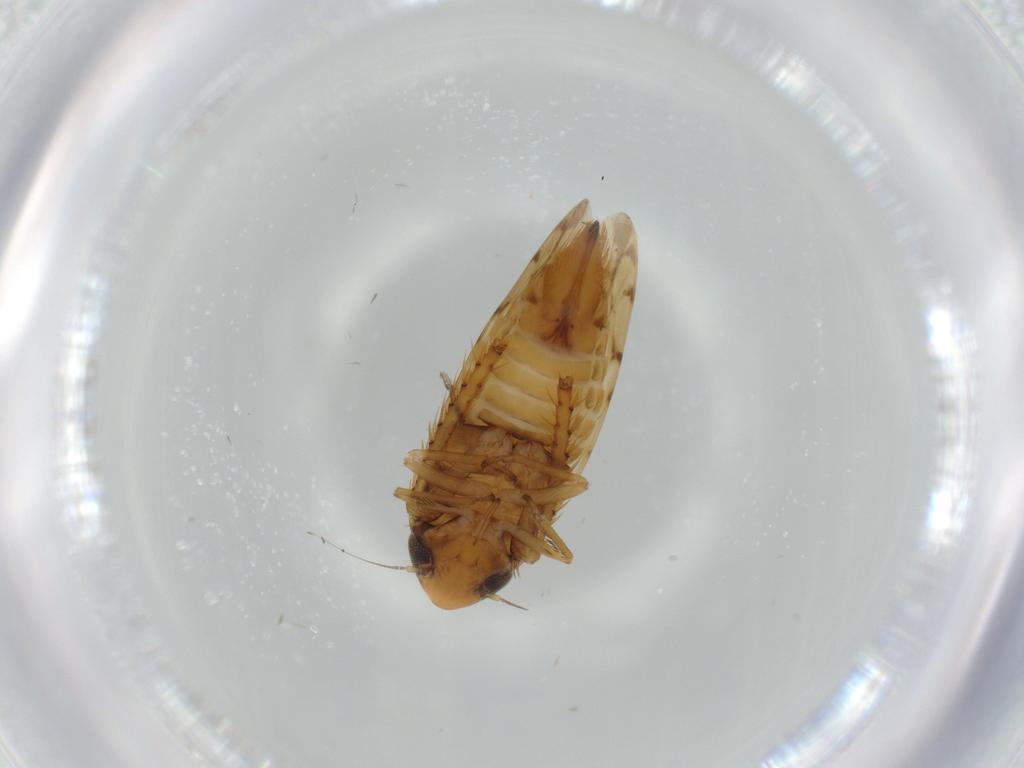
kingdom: Animalia
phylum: Arthropoda
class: Insecta
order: Hemiptera
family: Cicadellidae
